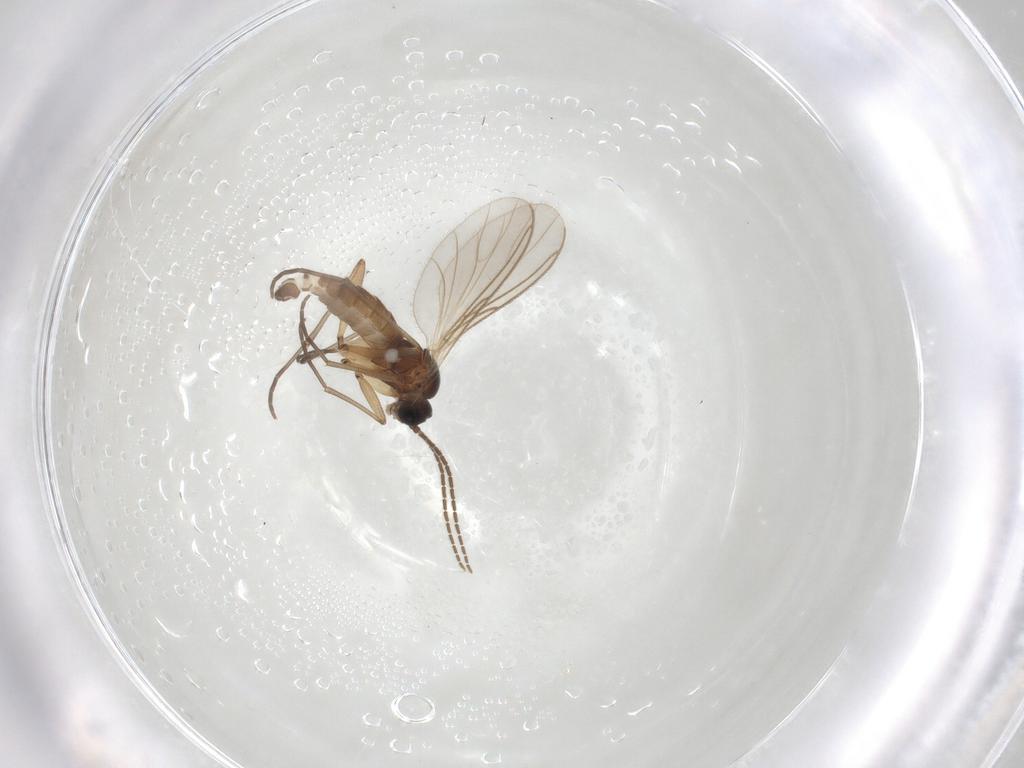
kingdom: Animalia
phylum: Arthropoda
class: Insecta
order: Diptera
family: Sciaridae
